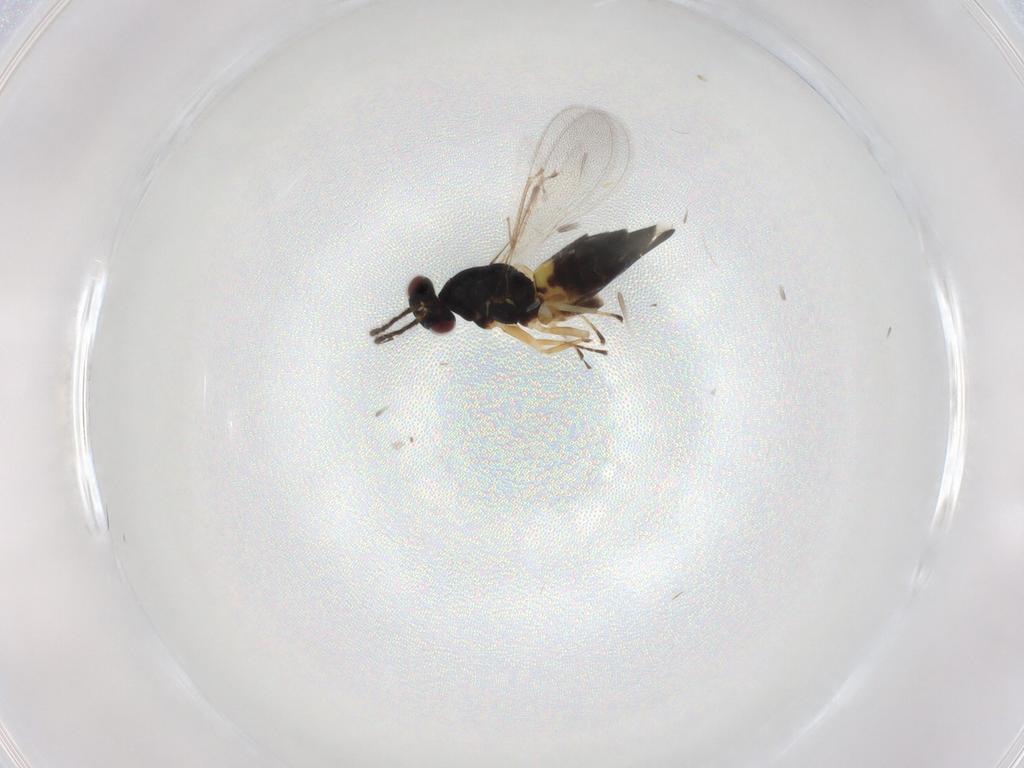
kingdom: Animalia
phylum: Arthropoda
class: Insecta
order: Hymenoptera
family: Eulophidae
